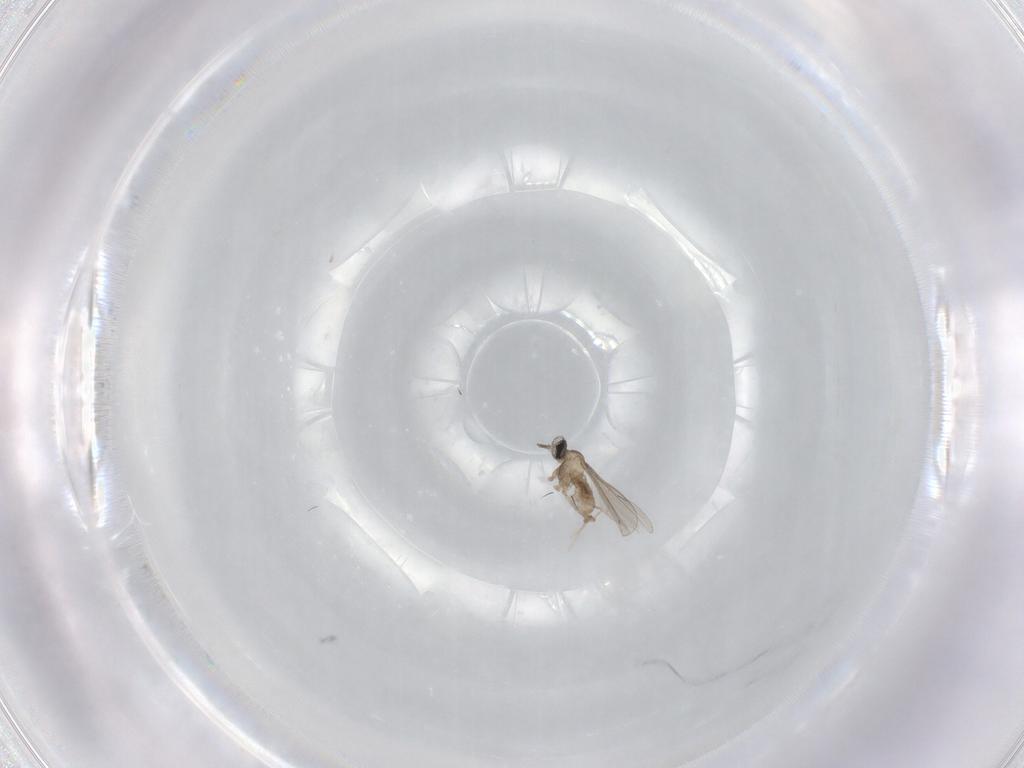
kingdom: Animalia
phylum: Arthropoda
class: Insecta
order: Diptera
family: Cecidomyiidae
